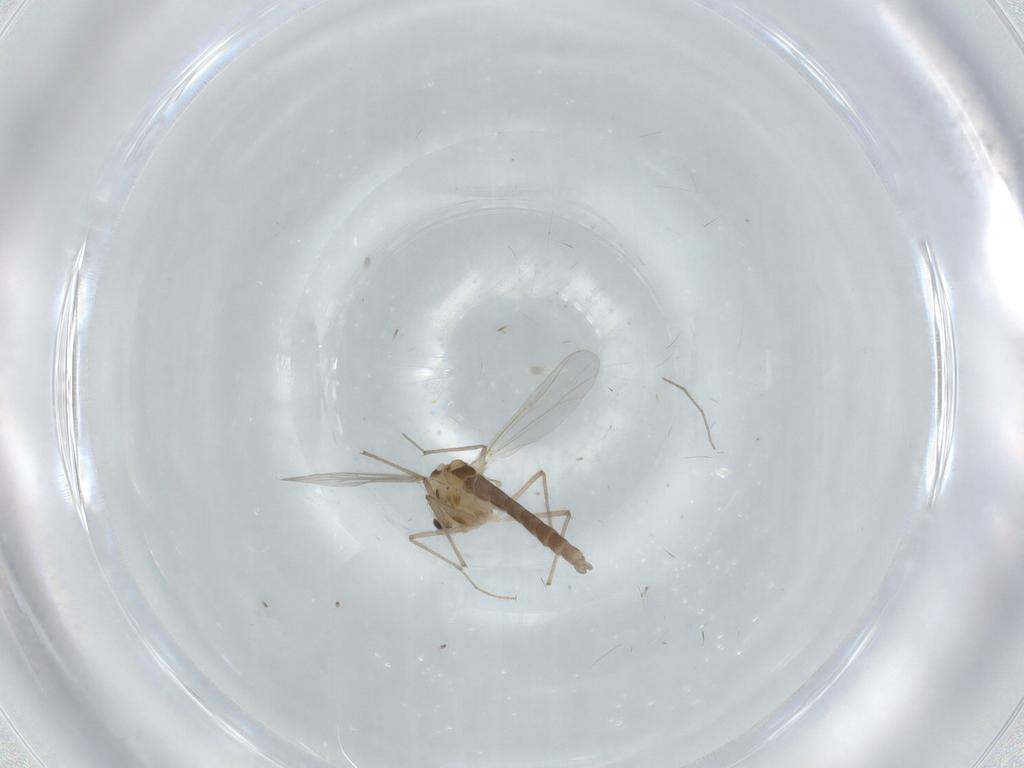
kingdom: Animalia
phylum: Arthropoda
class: Insecta
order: Diptera
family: Chironomidae
